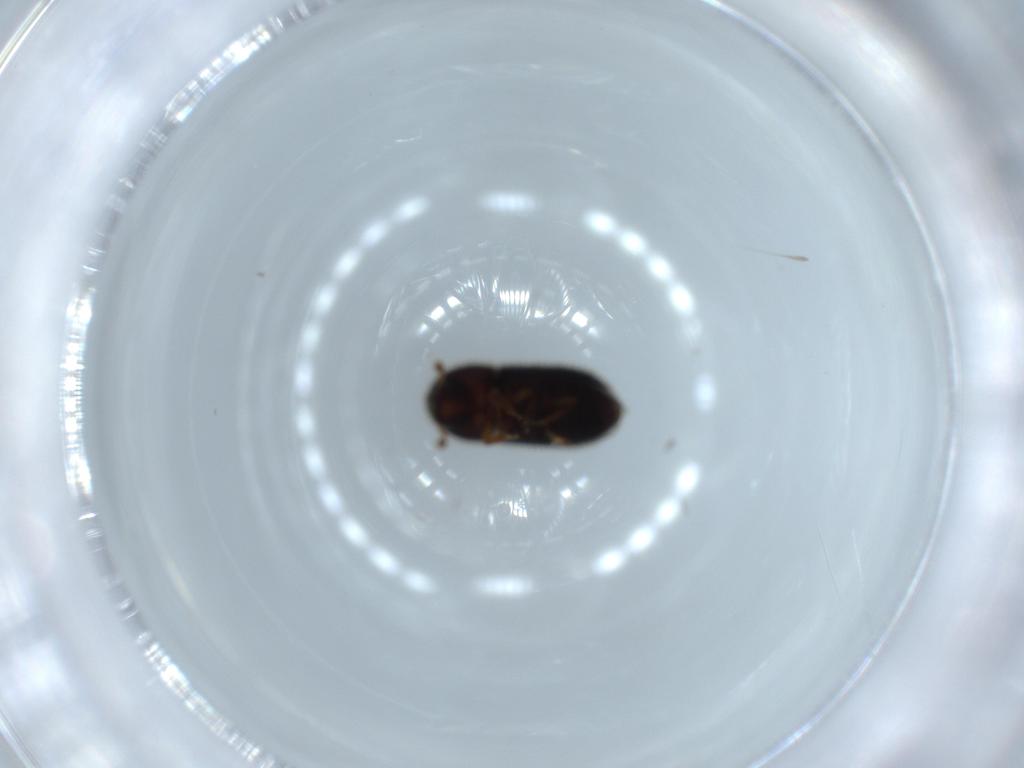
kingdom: Animalia
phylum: Arthropoda
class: Insecta
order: Coleoptera
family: Curculionidae
